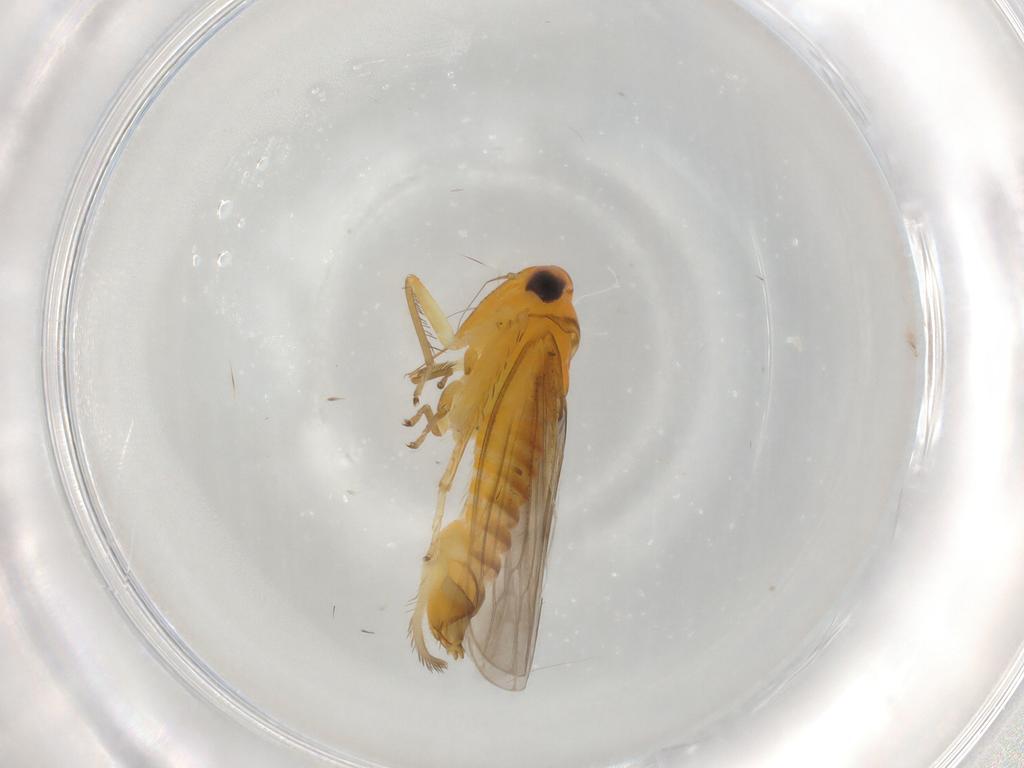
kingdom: Animalia
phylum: Arthropoda
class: Insecta
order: Hemiptera
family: Cicadellidae
